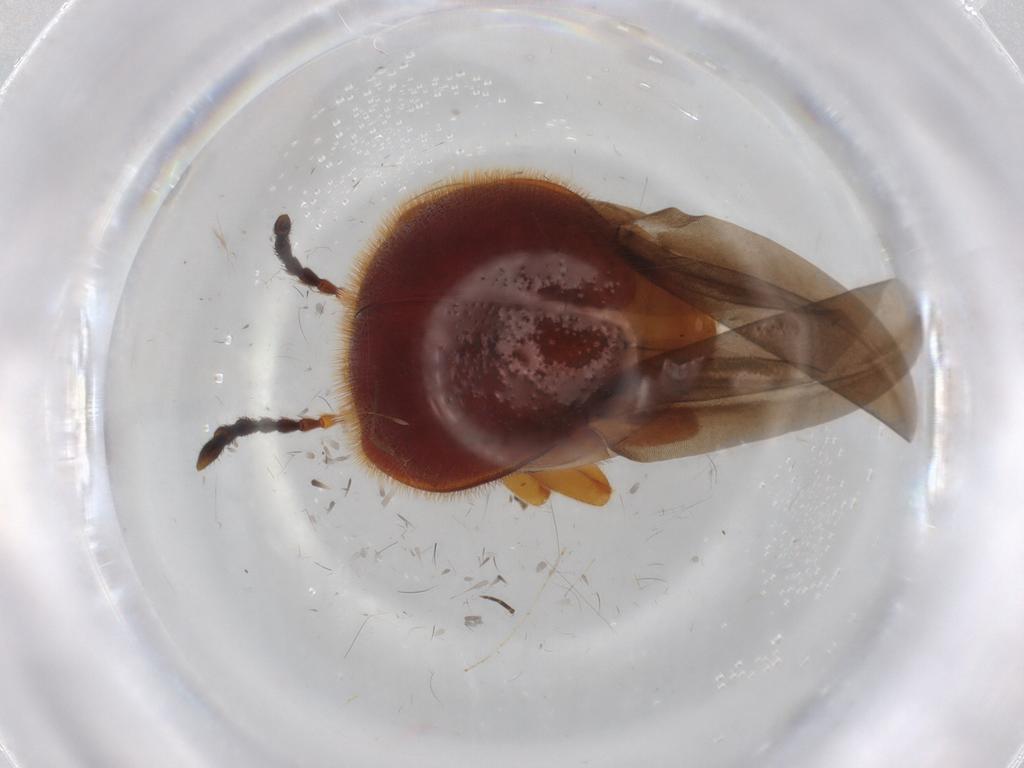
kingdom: Animalia
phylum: Arthropoda
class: Insecta
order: Coleoptera
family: Endomychidae
